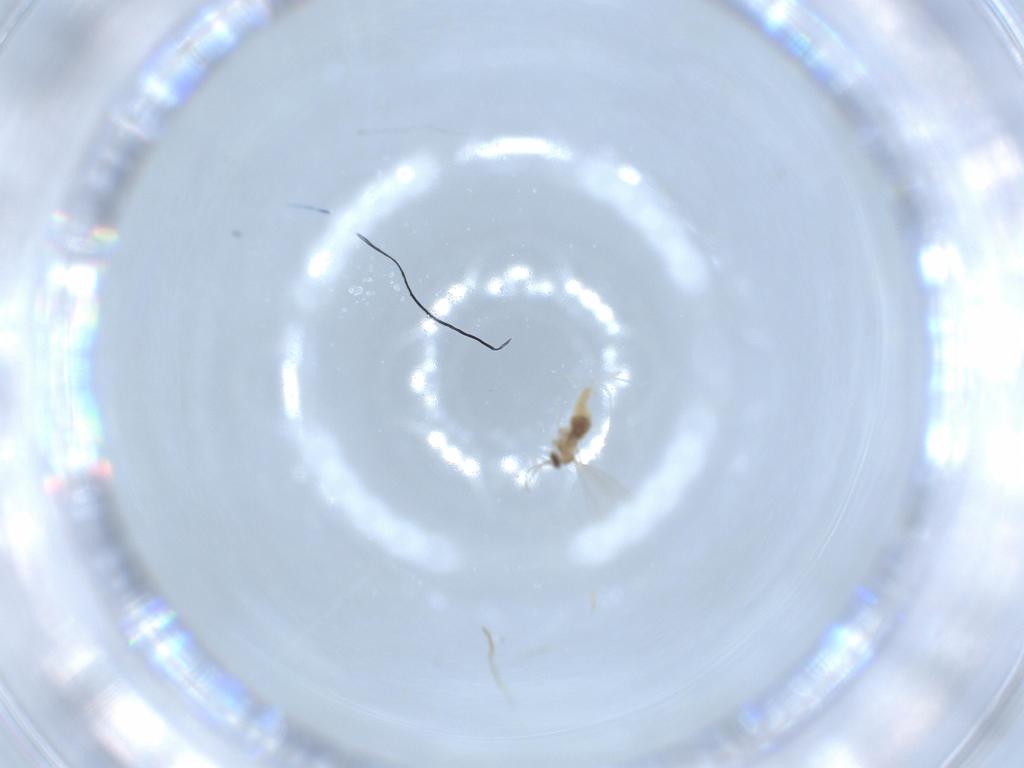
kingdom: Animalia
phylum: Arthropoda
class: Insecta
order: Diptera
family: Cecidomyiidae
